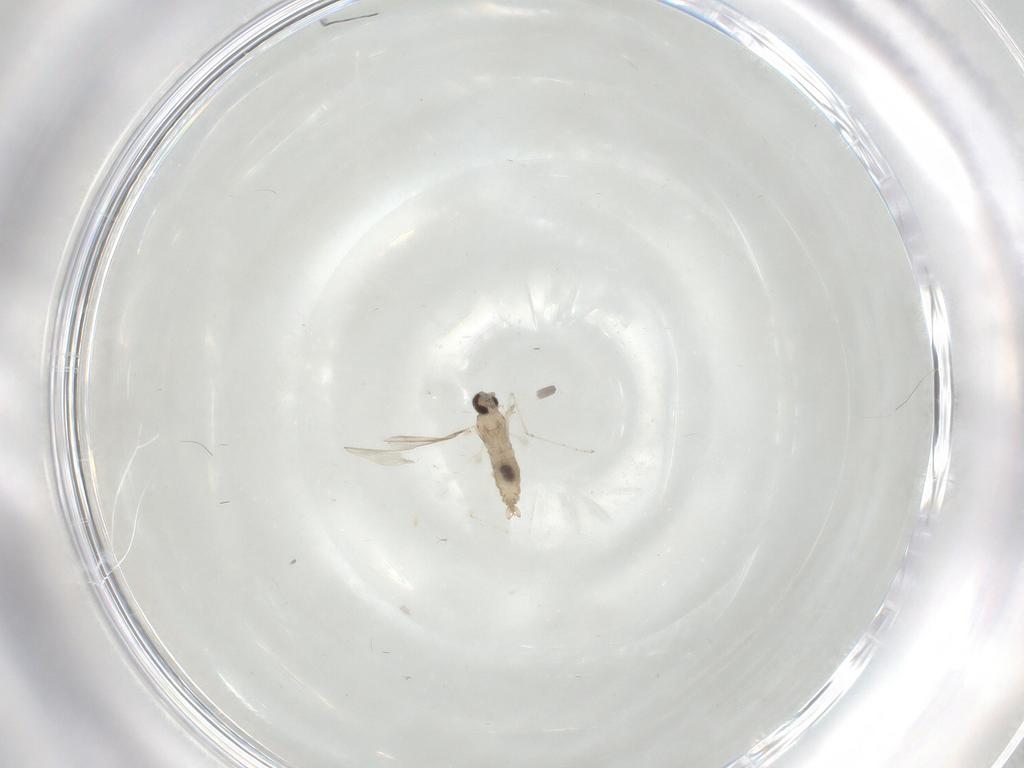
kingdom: Animalia
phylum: Arthropoda
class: Insecta
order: Diptera
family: Cecidomyiidae
